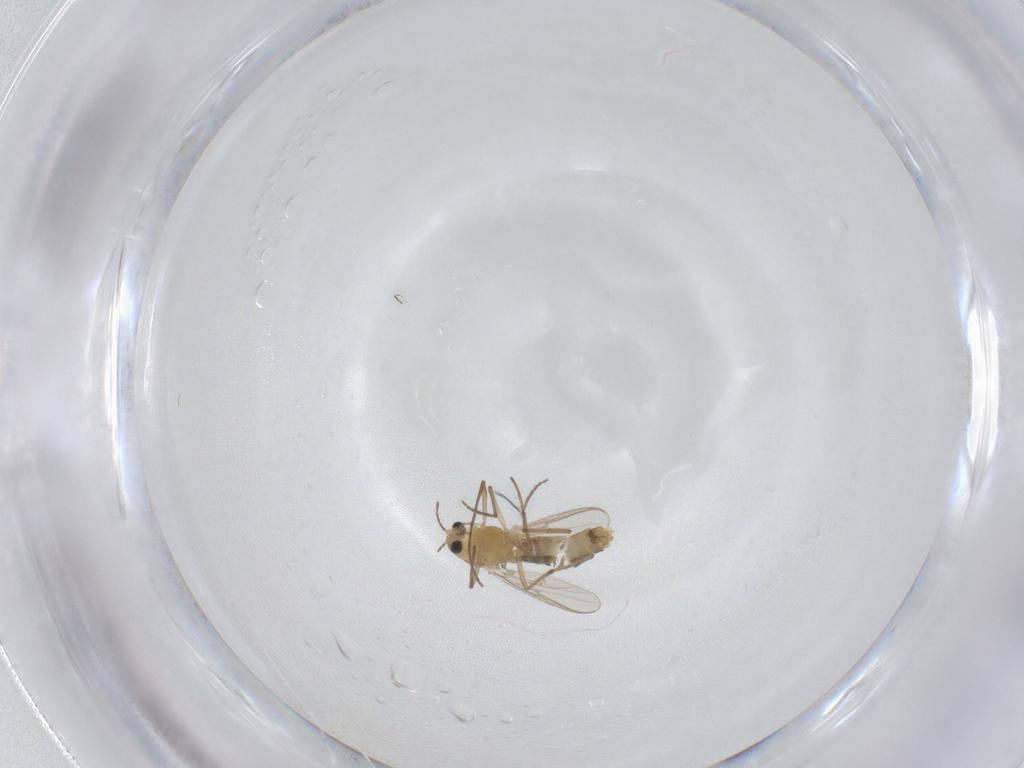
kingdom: Animalia
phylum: Arthropoda
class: Insecta
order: Diptera
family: Chironomidae
